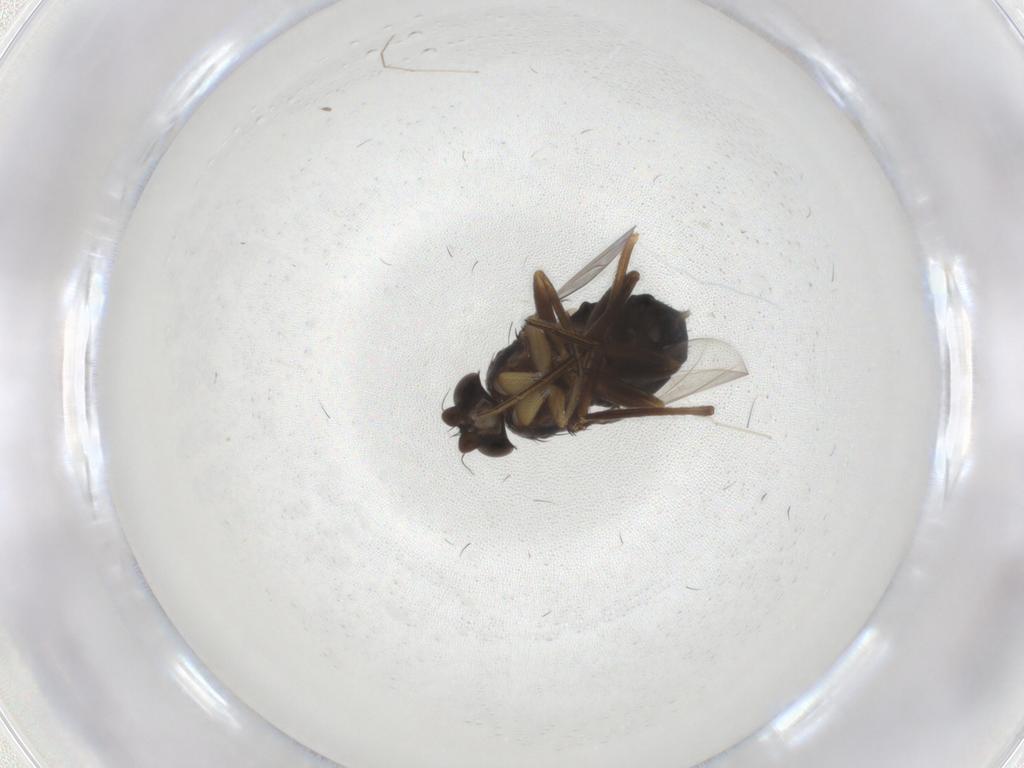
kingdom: Animalia
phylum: Arthropoda
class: Insecta
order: Diptera
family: Phoridae
